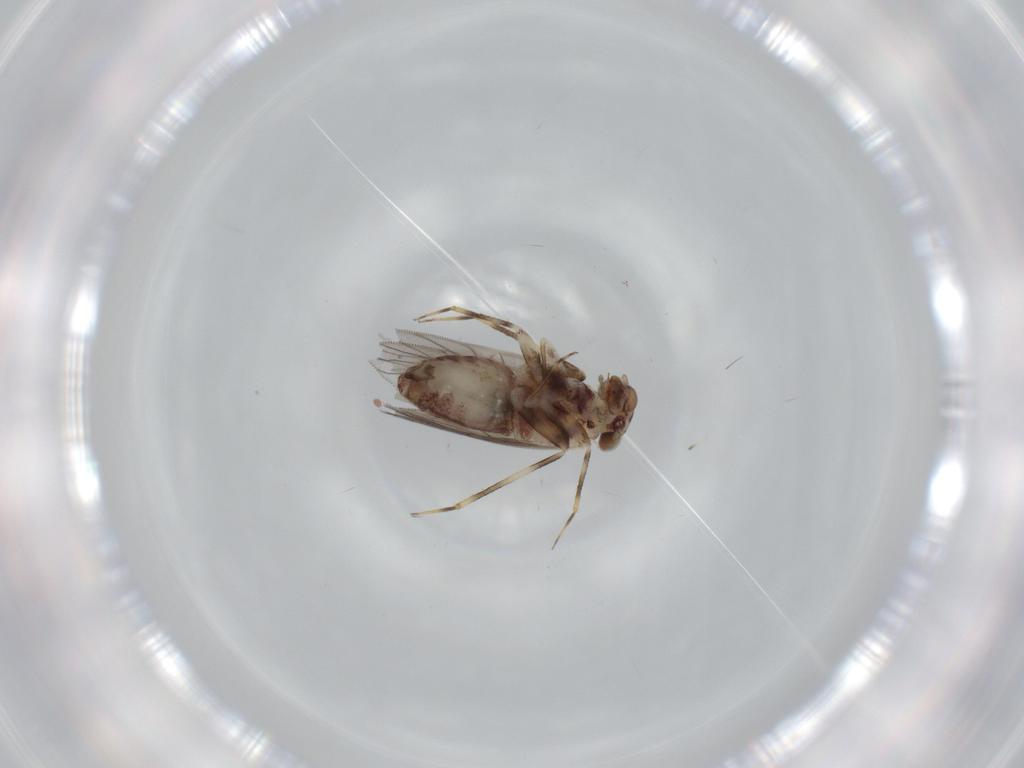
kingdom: Animalia
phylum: Arthropoda
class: Insecta
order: Psocodea
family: Lepidopsocidae
